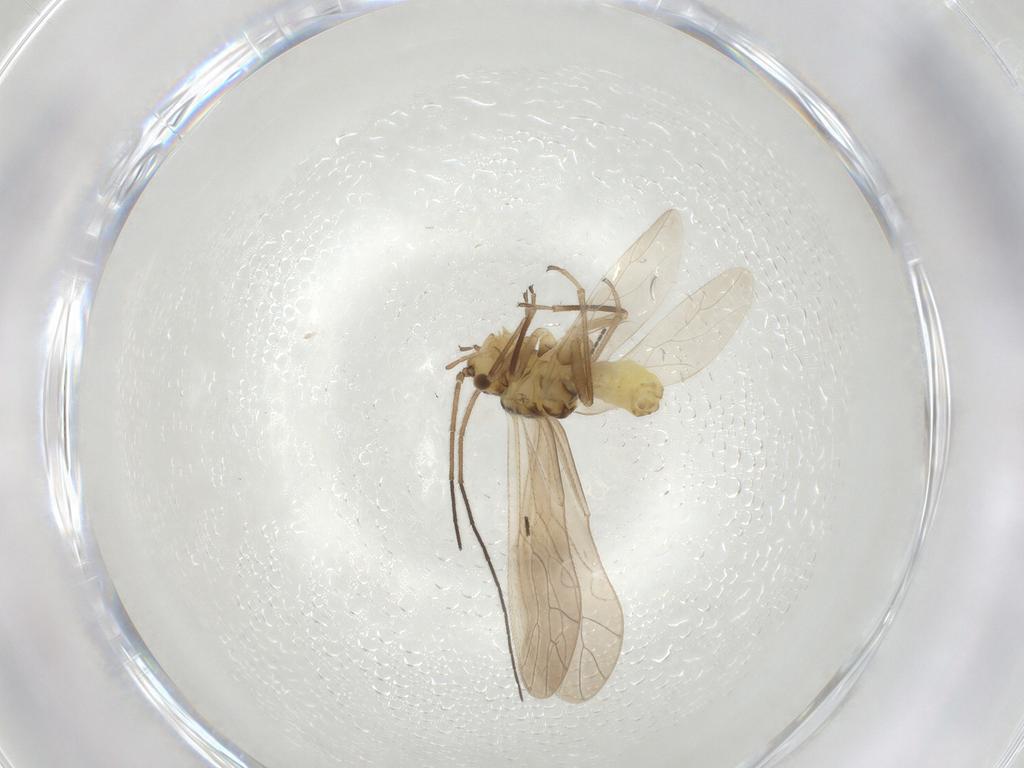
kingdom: Animalia
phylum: Arthropoda
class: Insecta
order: Psocodea
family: Caeciliusidae
